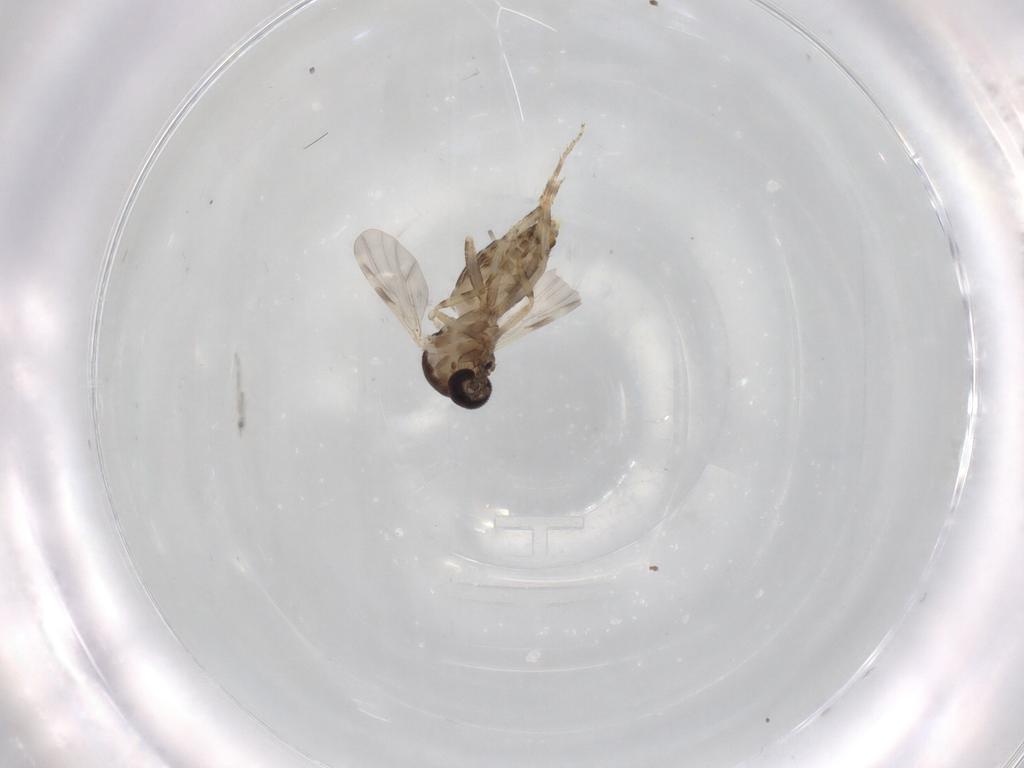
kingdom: Animalia
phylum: Arthropoda
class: Insecta
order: Diptera
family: Ceratopogonidae
